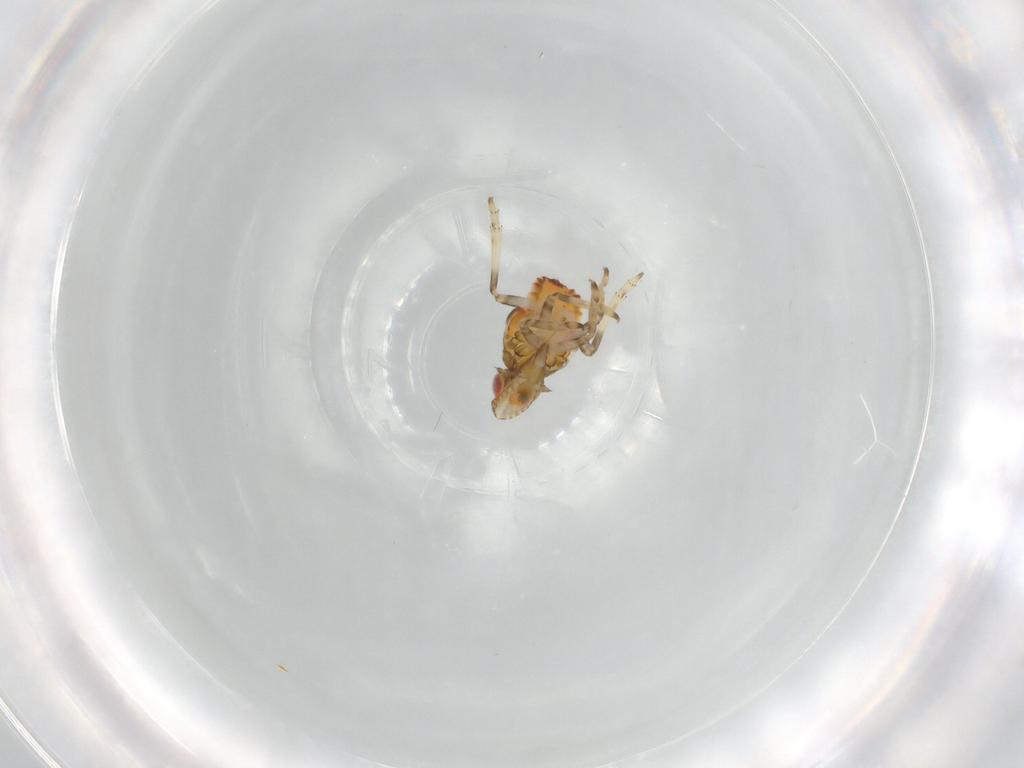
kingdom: Animalia
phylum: Arthropoda
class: Insecta
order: Hemiptera
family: Tropiduchidae
